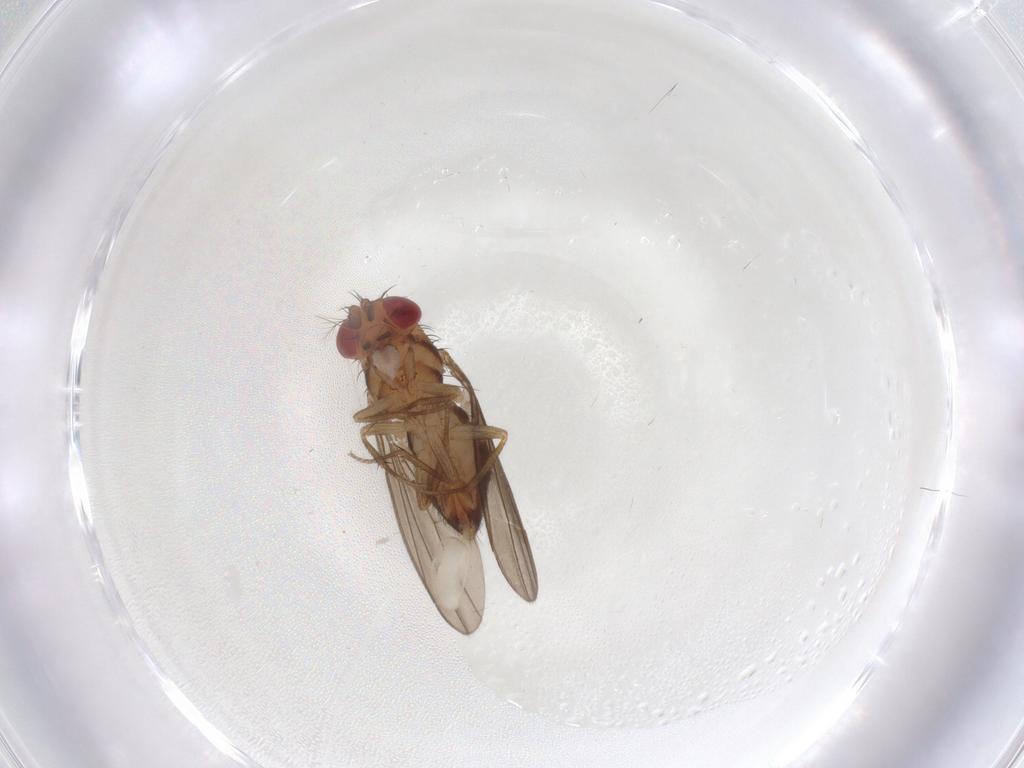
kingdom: Animalia
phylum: Arthropoda
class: Insecta
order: Diptera
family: Drosophilidae
